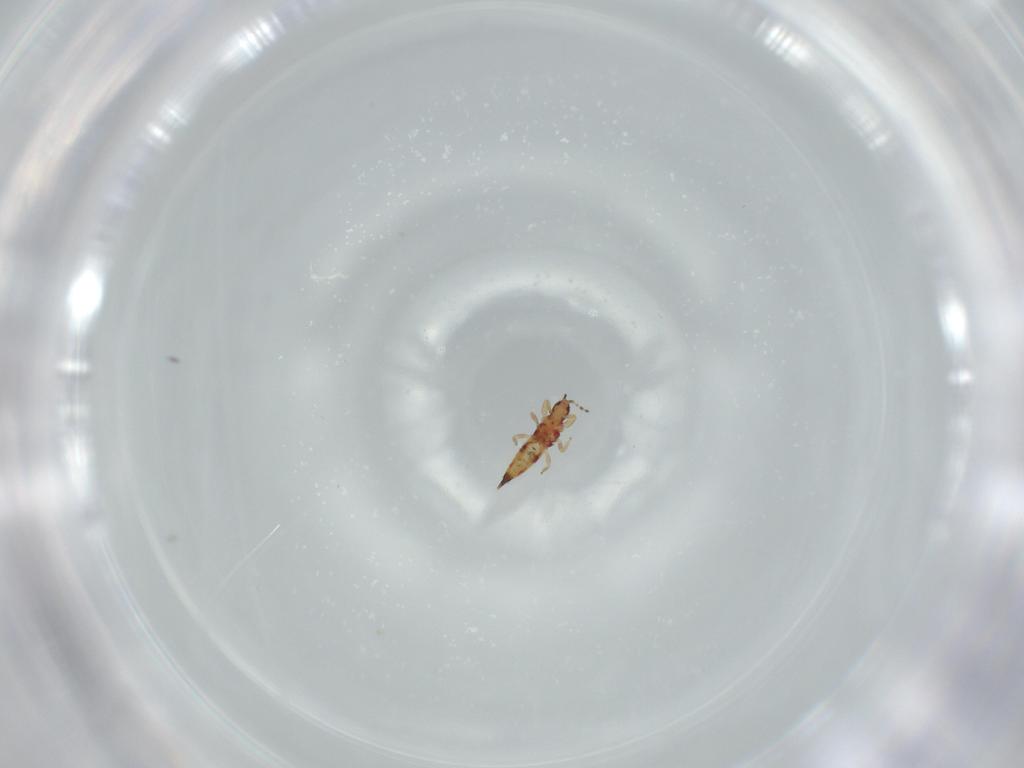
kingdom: Animalia
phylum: Arthropoda
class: Insecta
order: Thysanoptera
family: Phlaeothripidae
